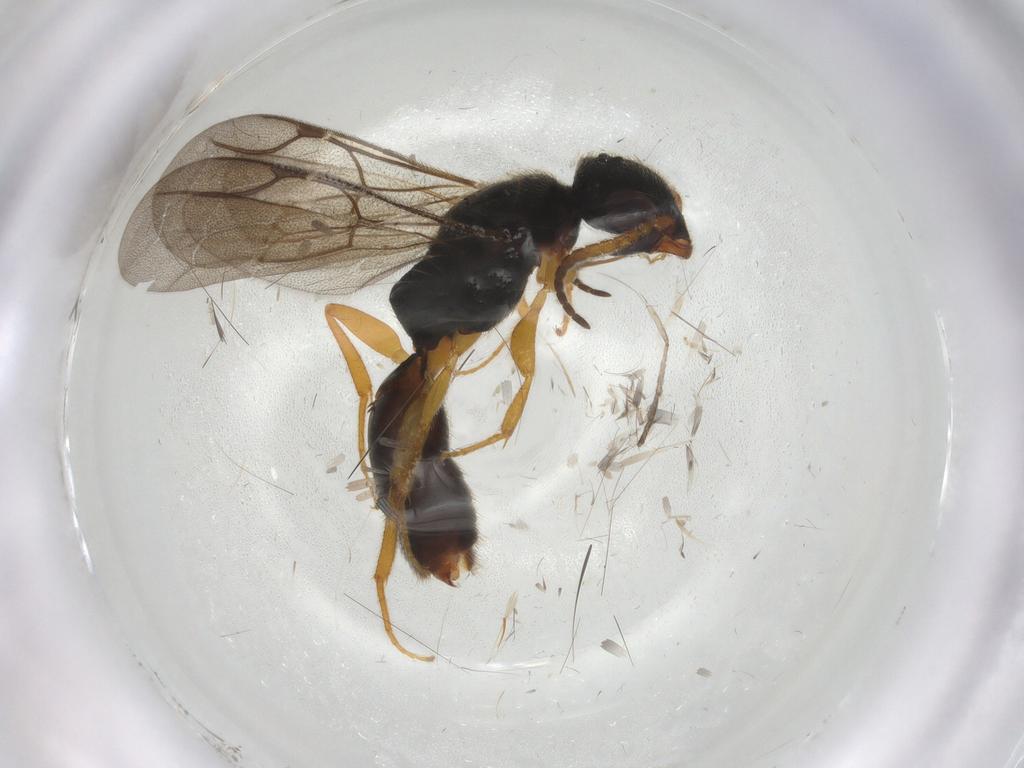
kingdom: Animalia
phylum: Arthropoda
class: Insecta
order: Hymenoptera
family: Bethylidae
